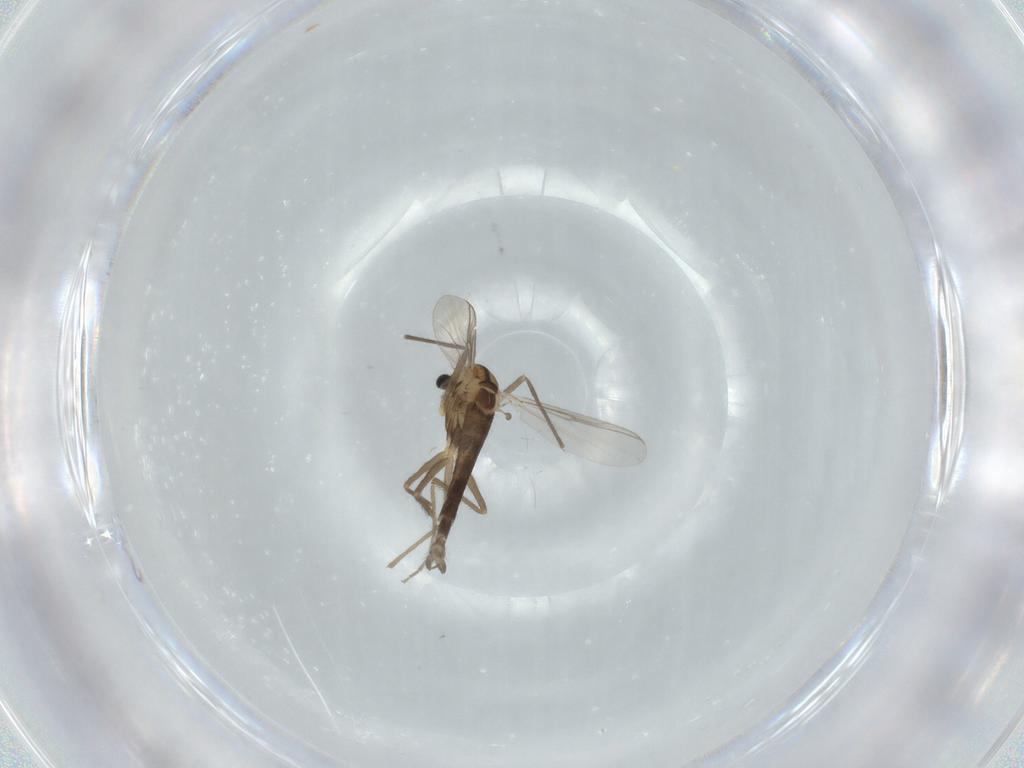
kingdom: Animalia
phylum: Arthropoda
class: Insecta
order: Diptera
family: Chironomidae
